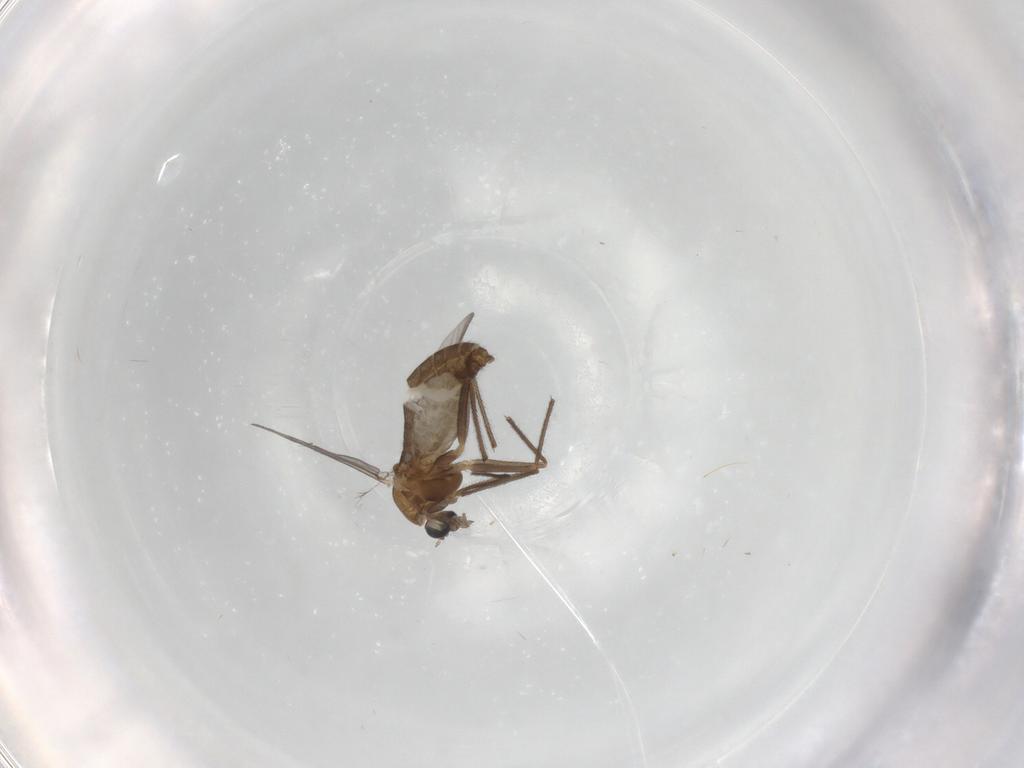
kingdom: Animalia
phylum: Arthropoda
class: Insecta
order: Diptera
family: Chironomidae
